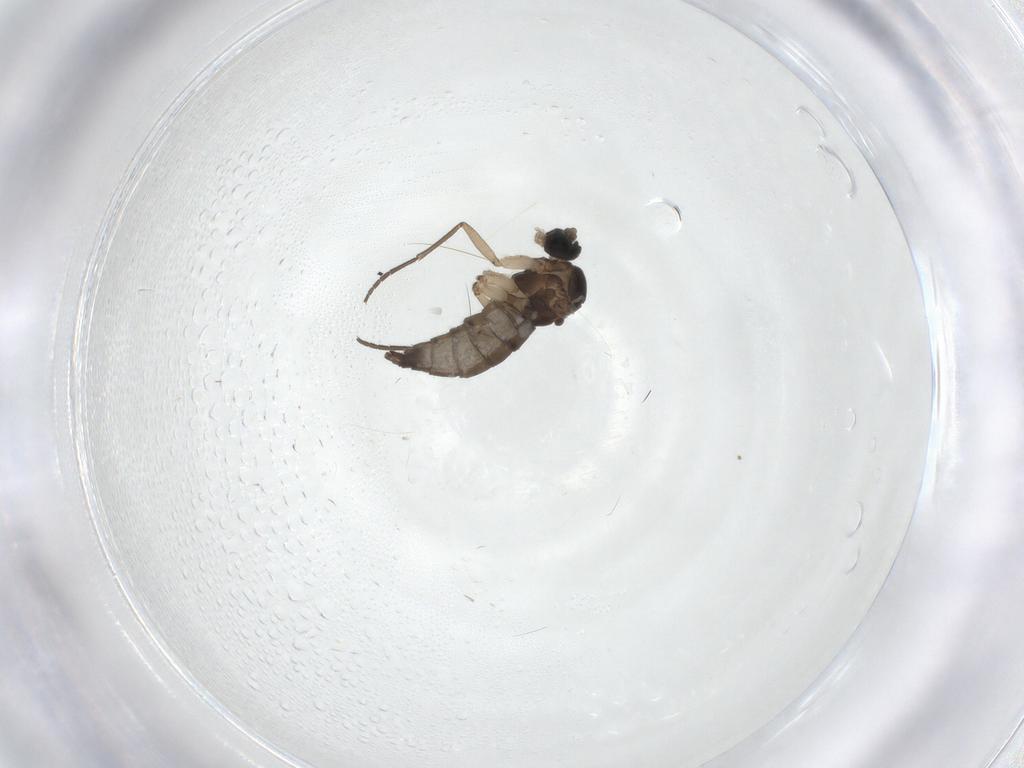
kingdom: Animalia
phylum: Arthropoda
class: Insecta
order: Diptera
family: Sciaridae
